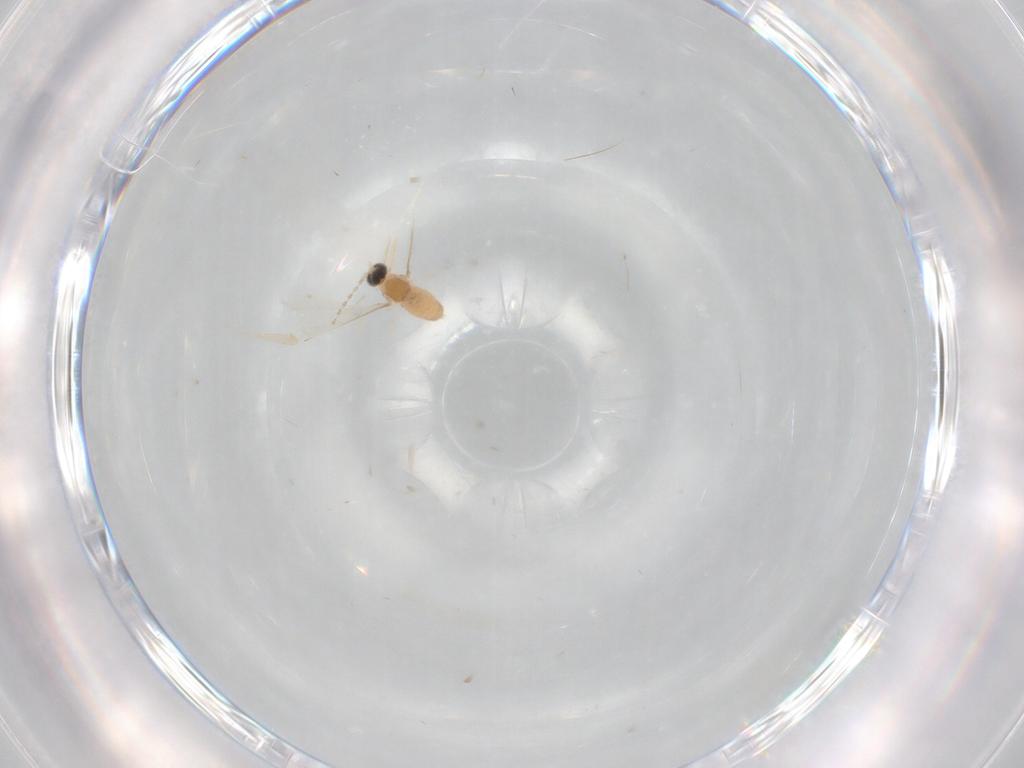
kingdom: Animalia
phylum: Arthropoda
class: Insecta
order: Diptera
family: Cecidomyiidae
